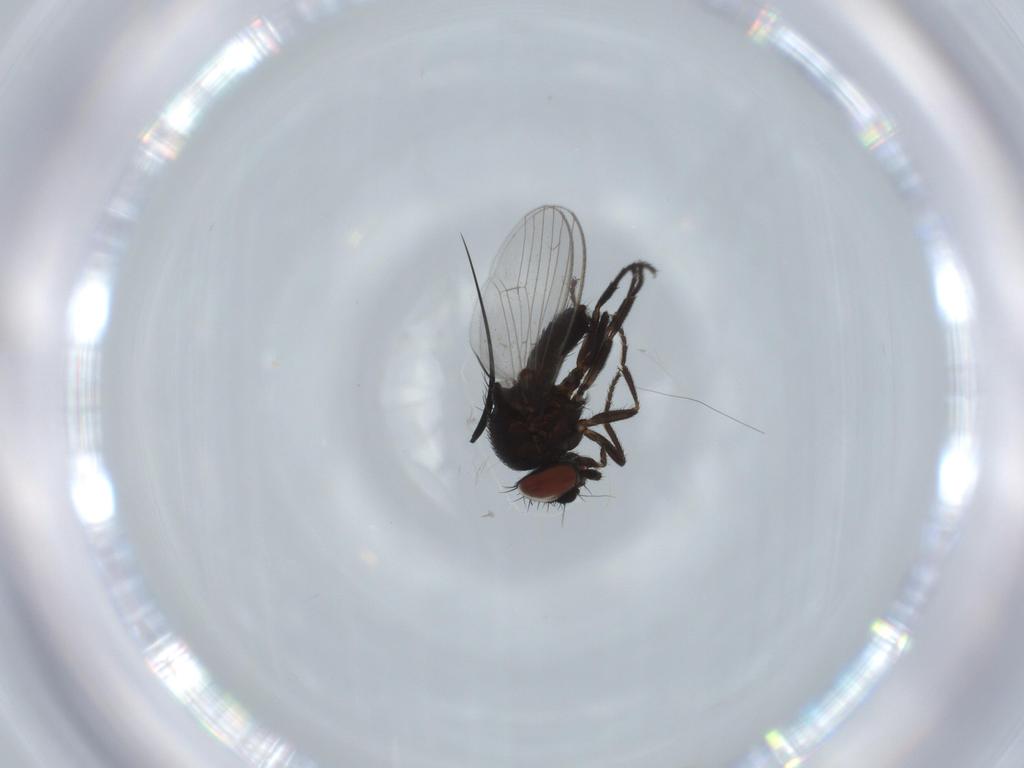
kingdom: Animalia
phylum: Arthropoda
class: Insecta
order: Diptera
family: Milichiidae
